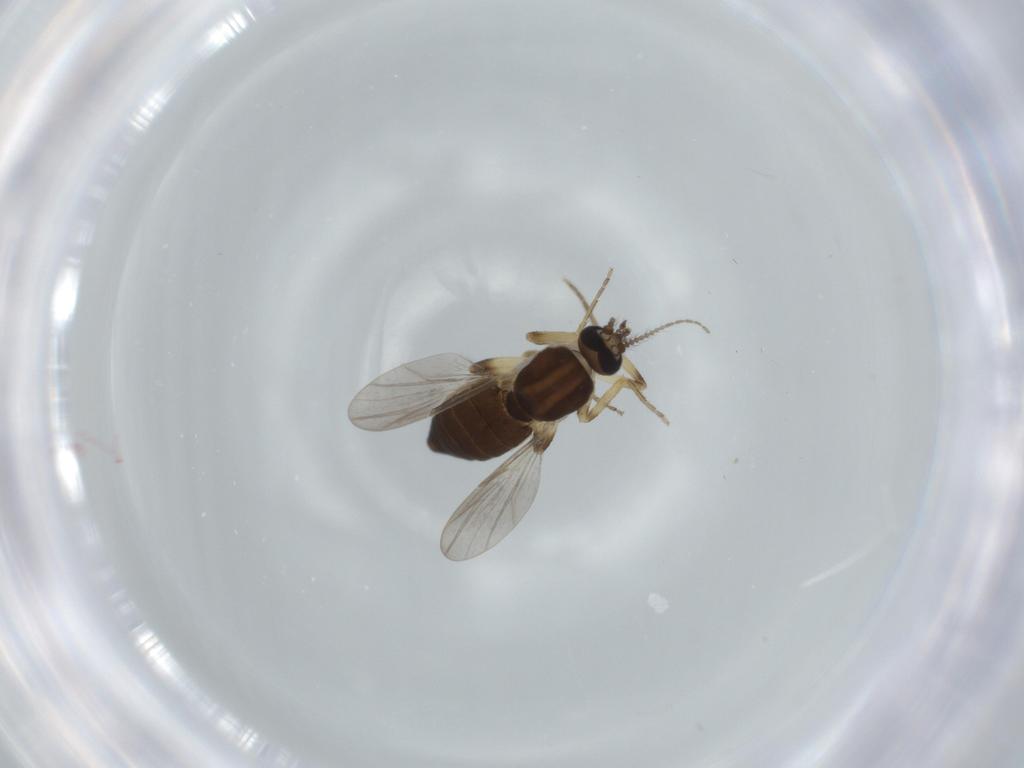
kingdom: Animalia
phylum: Arthropoda
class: Insecta
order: Diptera
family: Ceratopogonidae
